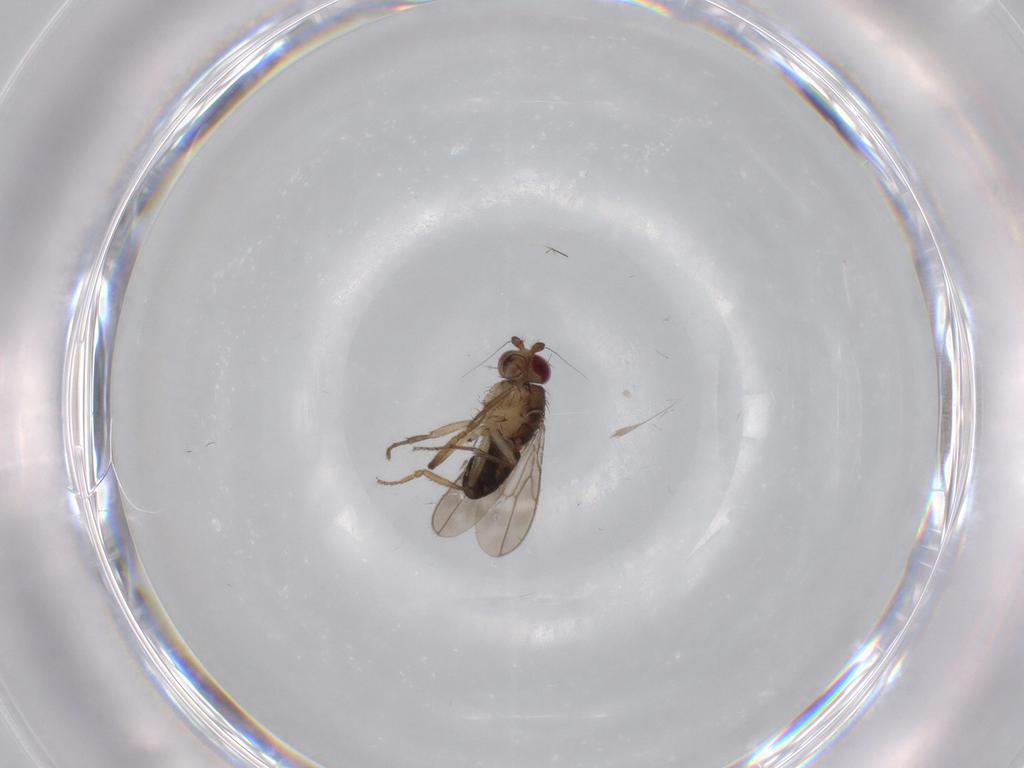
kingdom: Animalia
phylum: Arthropoda
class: Insecta
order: Diptera
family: Sphaeroceridae
